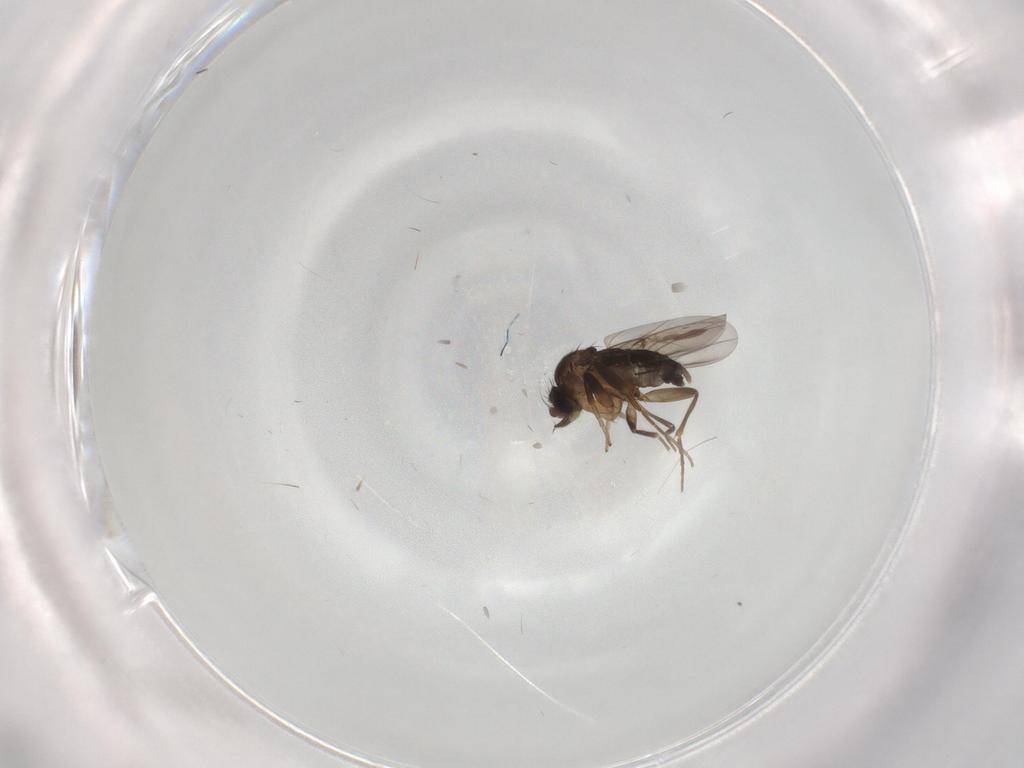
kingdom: Animalia
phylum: Arthropoda
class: Insecta
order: Diptera
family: Phoridae
